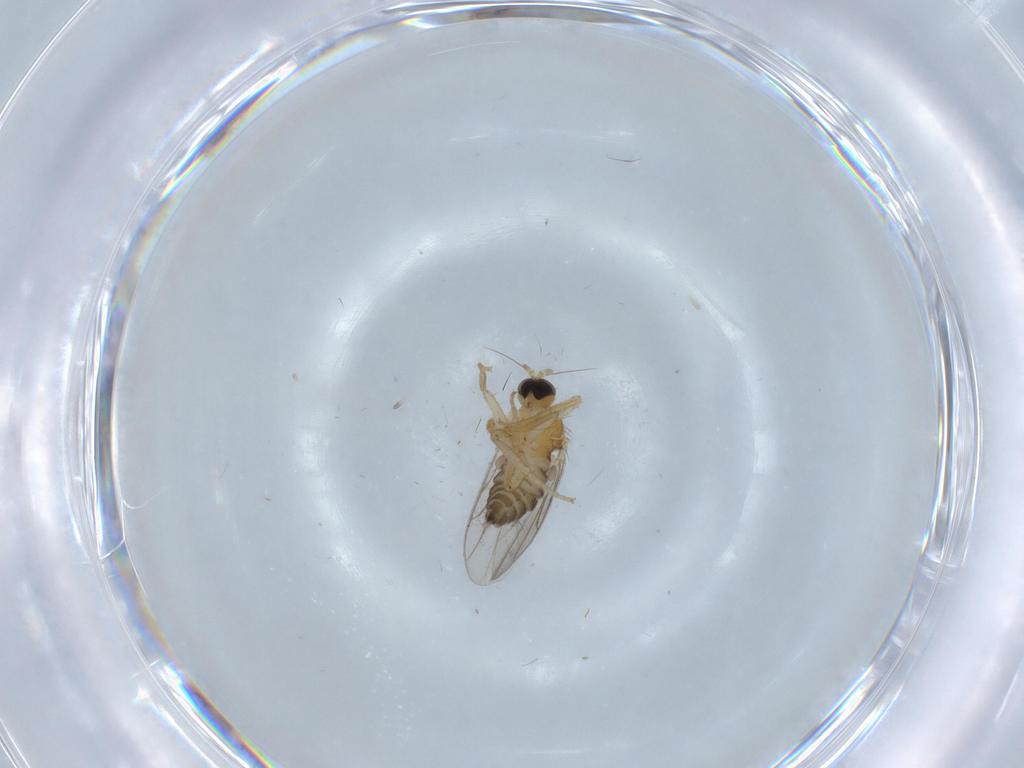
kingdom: Animalia
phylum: Arthropoda
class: Insecta
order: Diptera
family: Hybotidae
